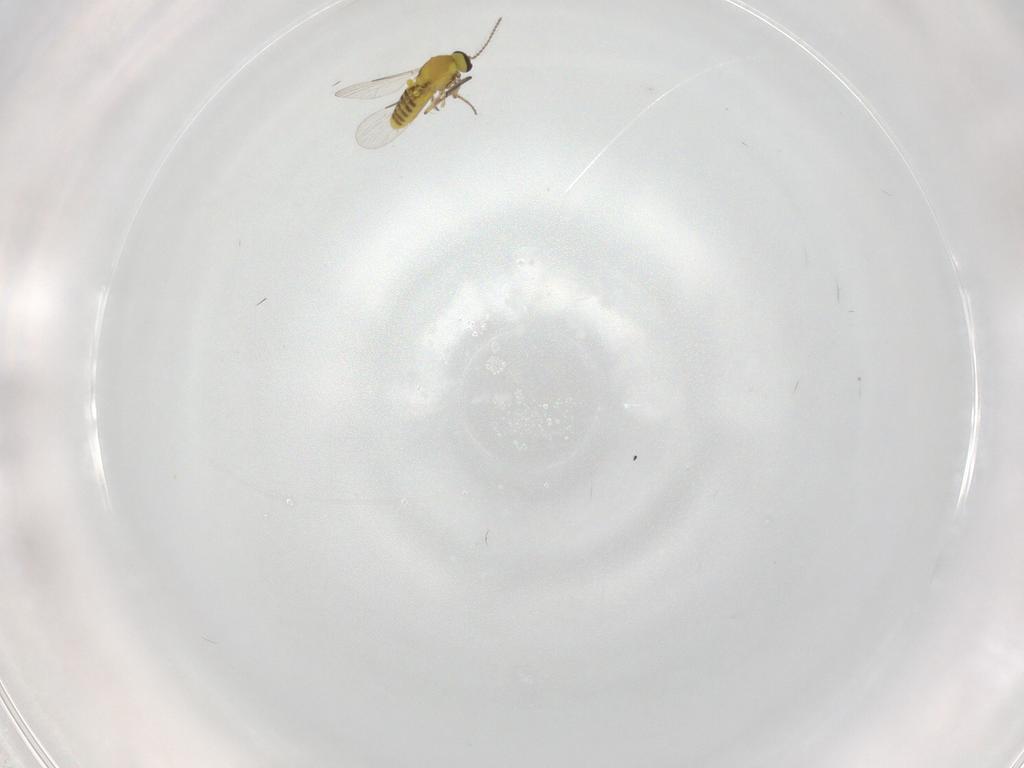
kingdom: Animalia
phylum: Arthropoda
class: Insecta
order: Diptera
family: Ceratopogonidae
